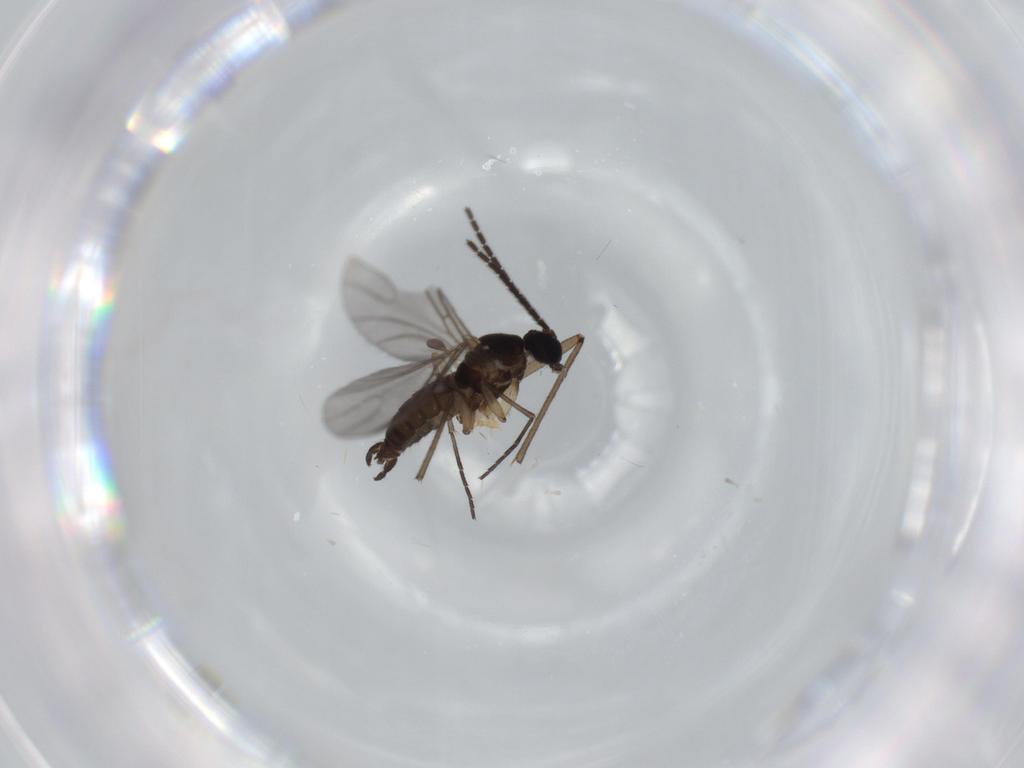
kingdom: Animalia
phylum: Arthropoda
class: Insecta
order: Diptera
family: Sciaridae
